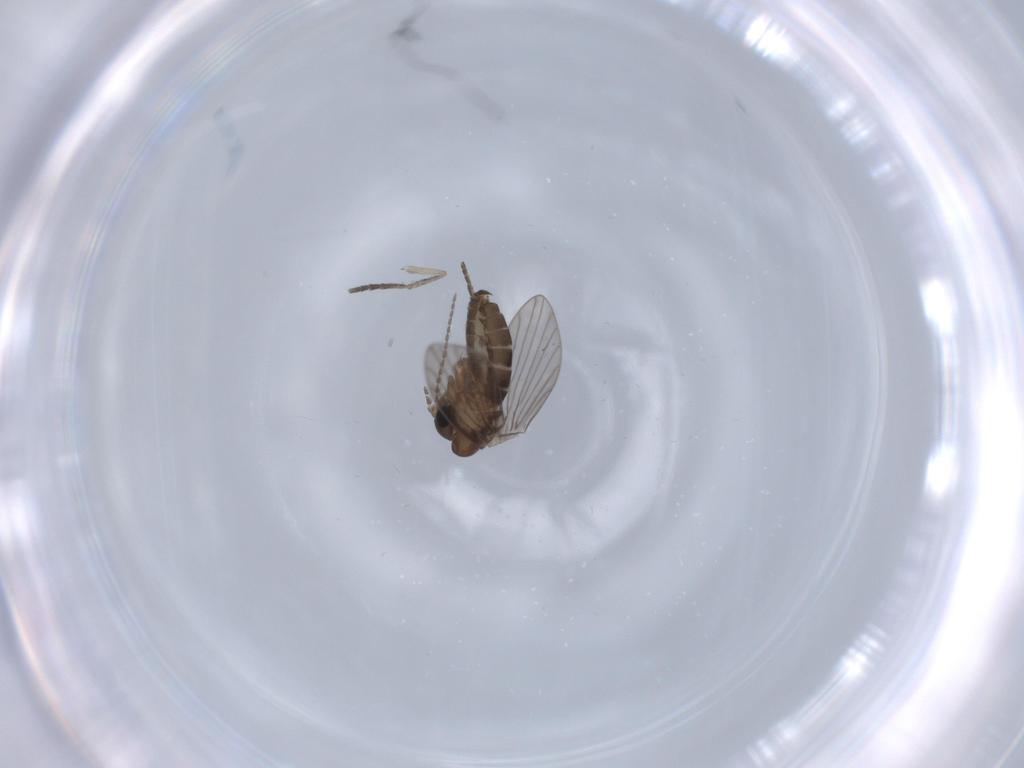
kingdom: Animalia
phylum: Arthropoda
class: Insecta
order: Diptera
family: Psychodidae
